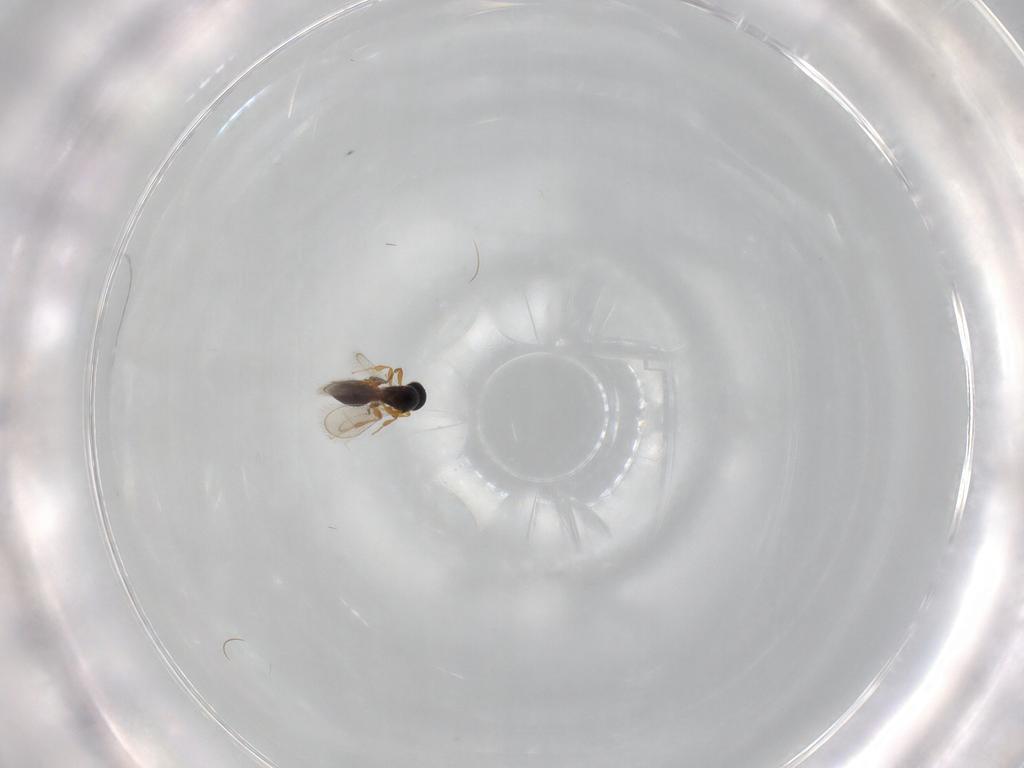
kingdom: Animalia
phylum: Arthropoda
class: Insecta
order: Hymenoptera
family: Platygastridae
